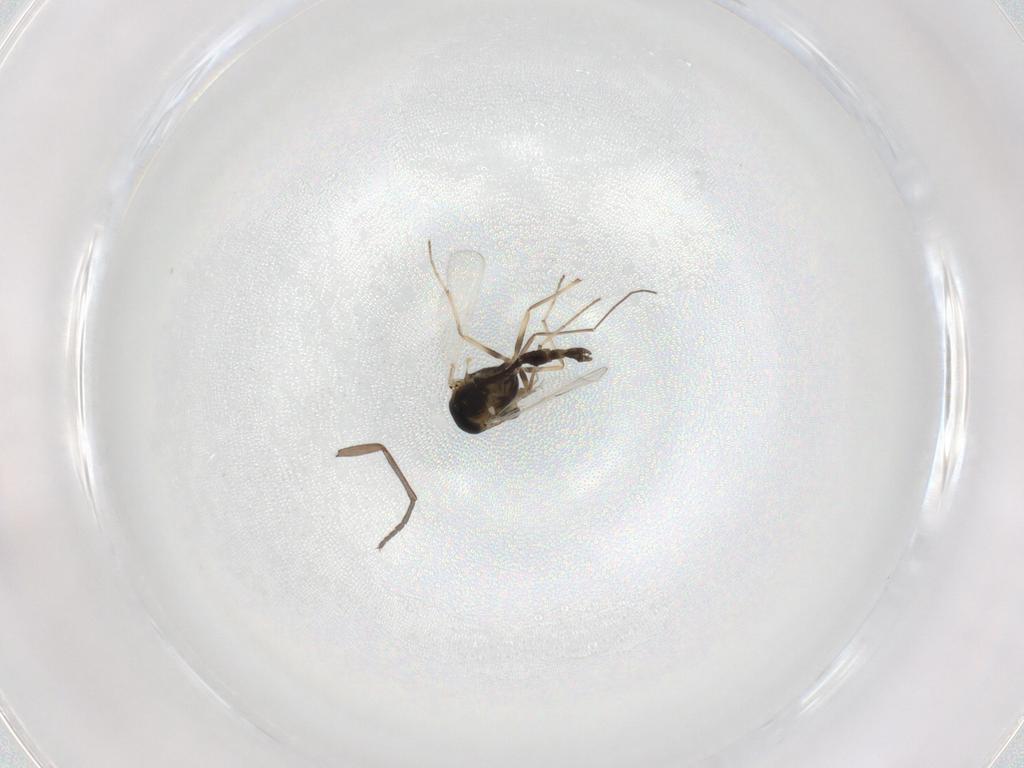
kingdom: Animalia
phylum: Arthropoda
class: Insecta
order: Diptera
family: Chironomidae
